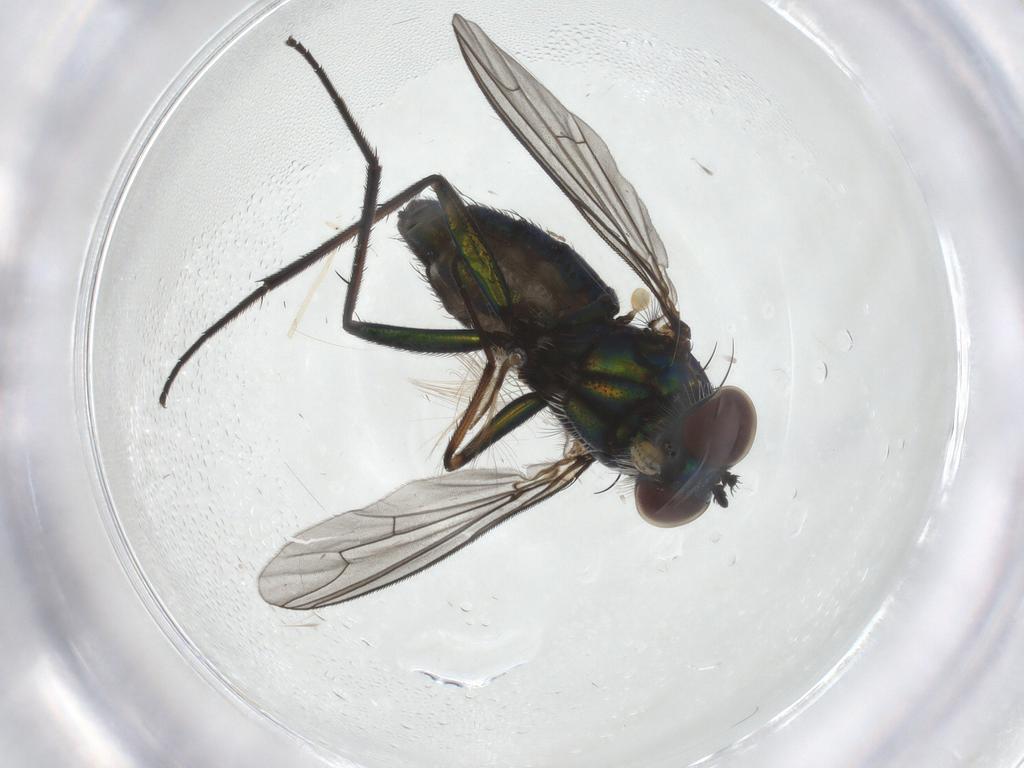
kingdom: Animalia
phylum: Arthropoda
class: Insecta
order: Diptera
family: Dolichopodidae
